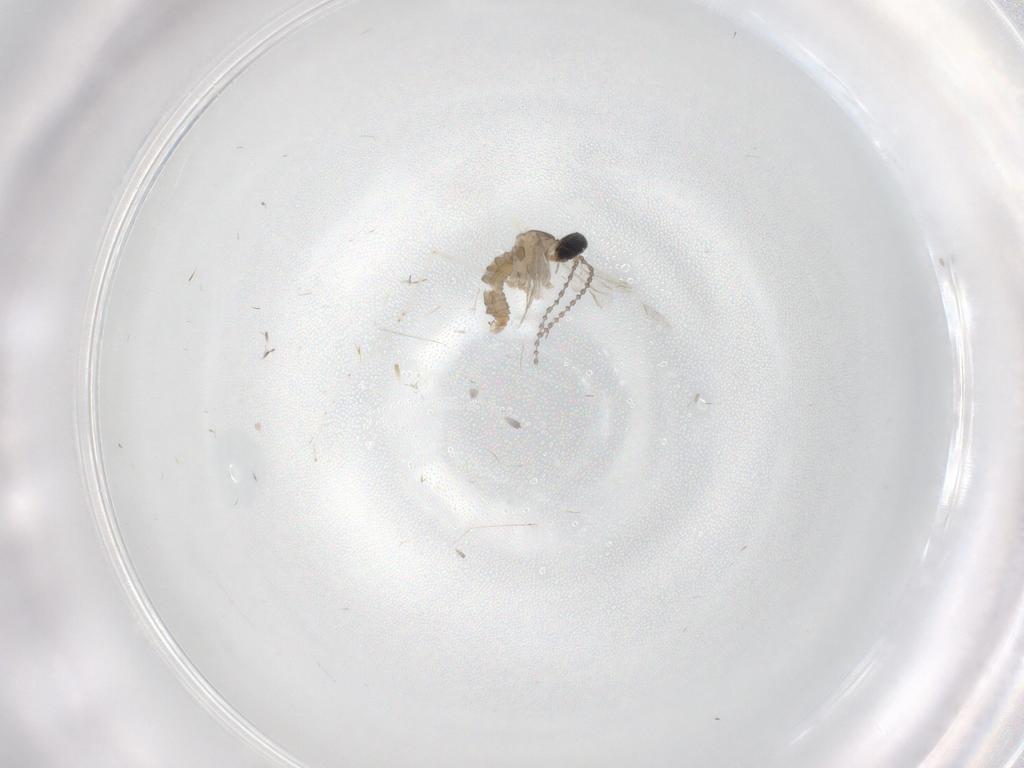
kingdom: Animalia
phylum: Arthropoda
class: Insecta
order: Diptera
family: Cecidomyiidae
